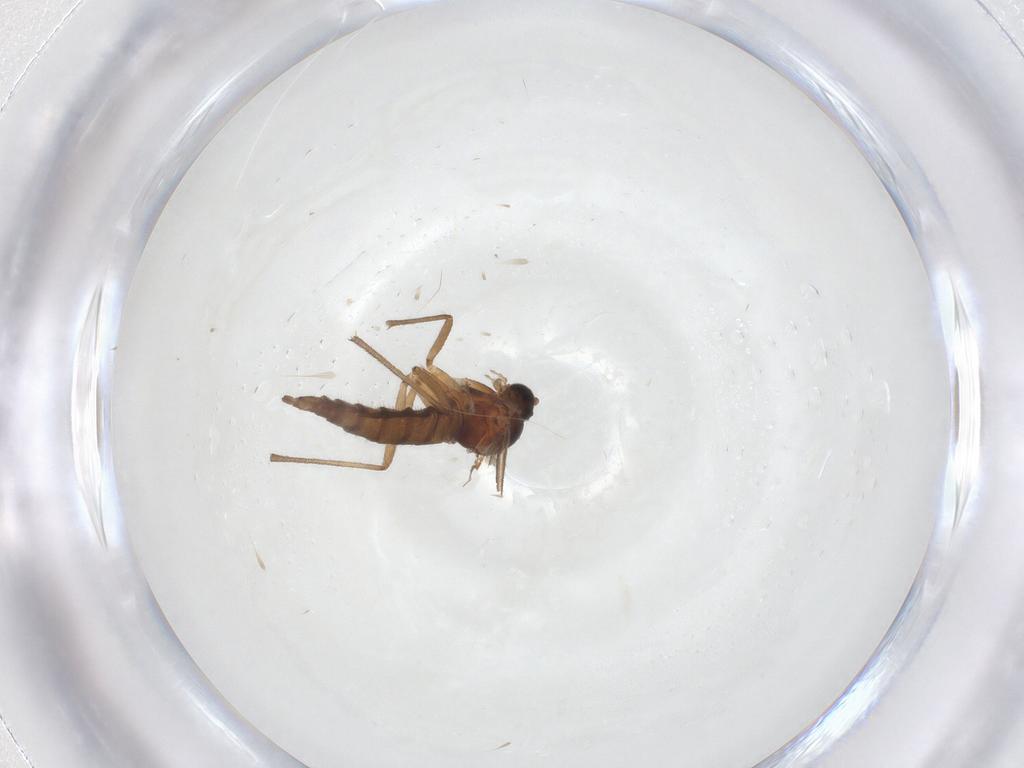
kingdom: Animalia
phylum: Arthropoda
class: Insecta
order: Diptera
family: Sciaridae
